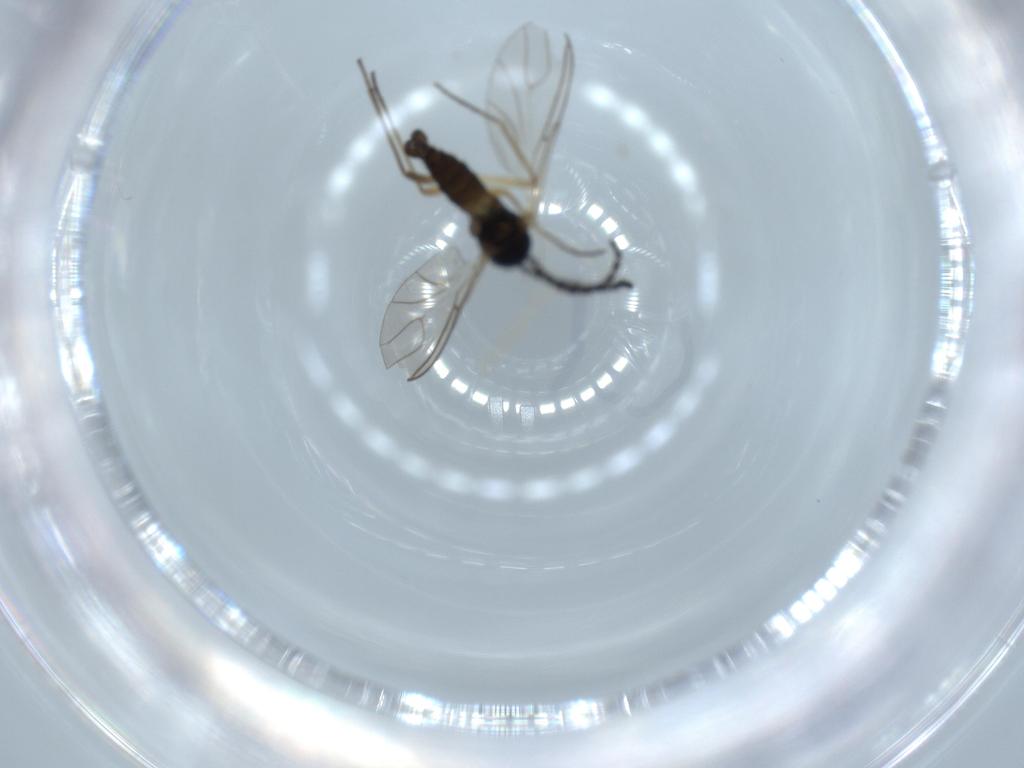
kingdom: Animalia
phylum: Arthropoda
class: Insecta
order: Diptera
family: Sciaridae
